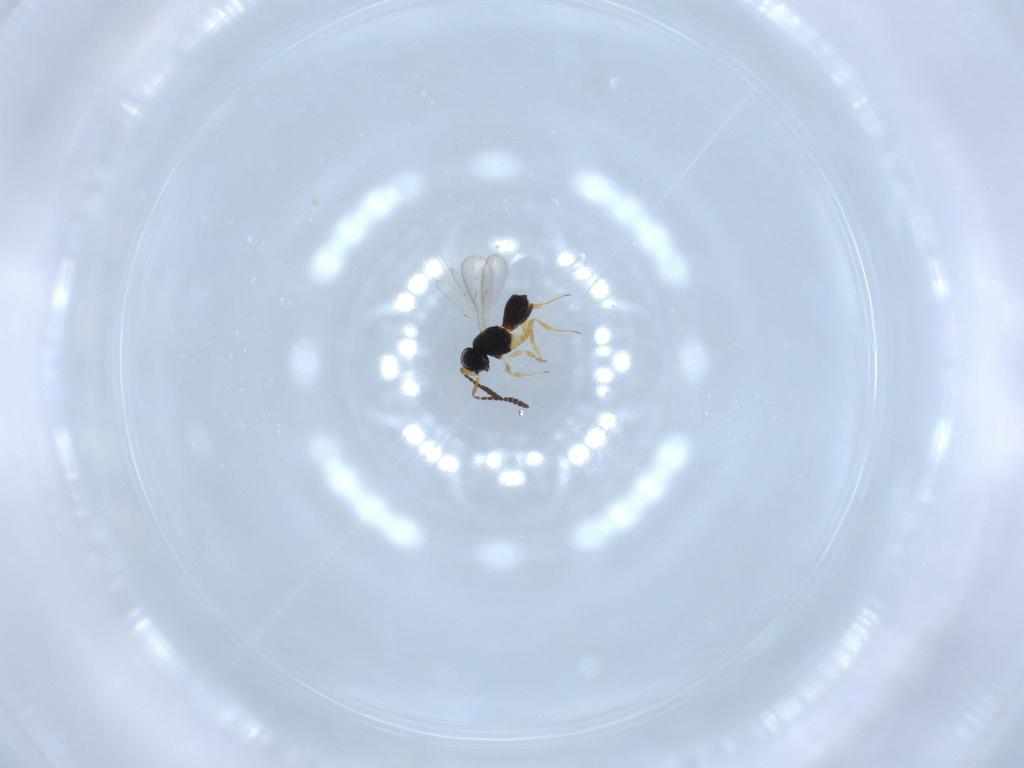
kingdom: Animalia
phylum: Arthropoda
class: Insecta
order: Hymenoptera
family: Scelionidae
